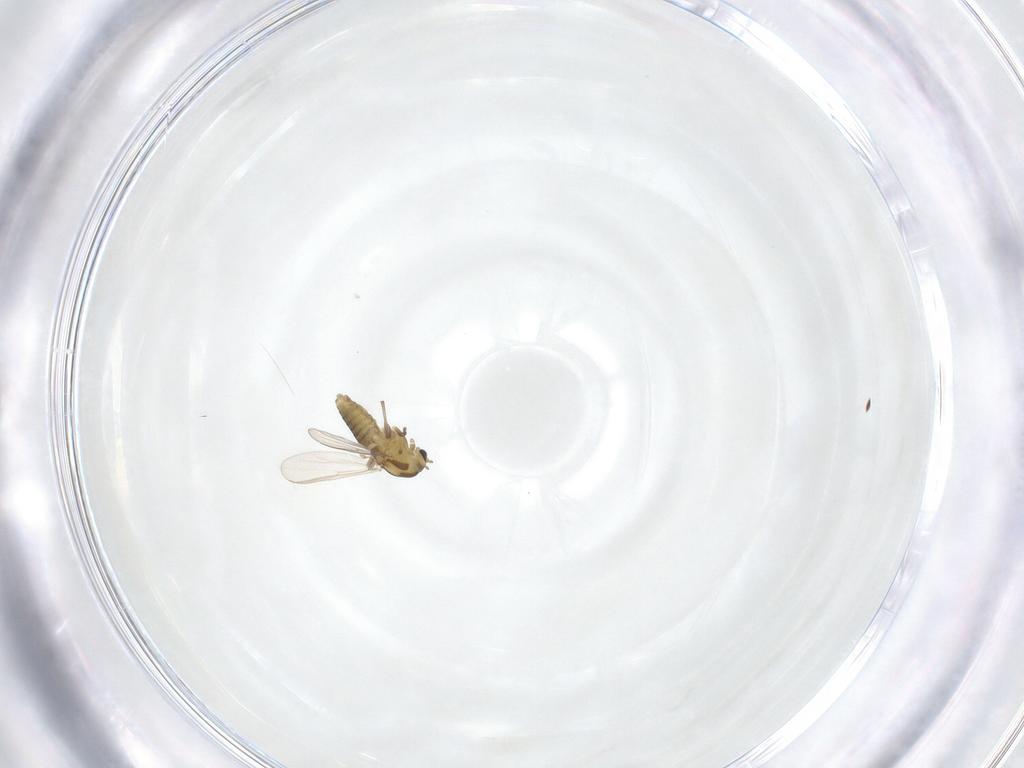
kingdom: Animalia
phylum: Arthropoda
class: Insecta
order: Diptera
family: Chironomidae
